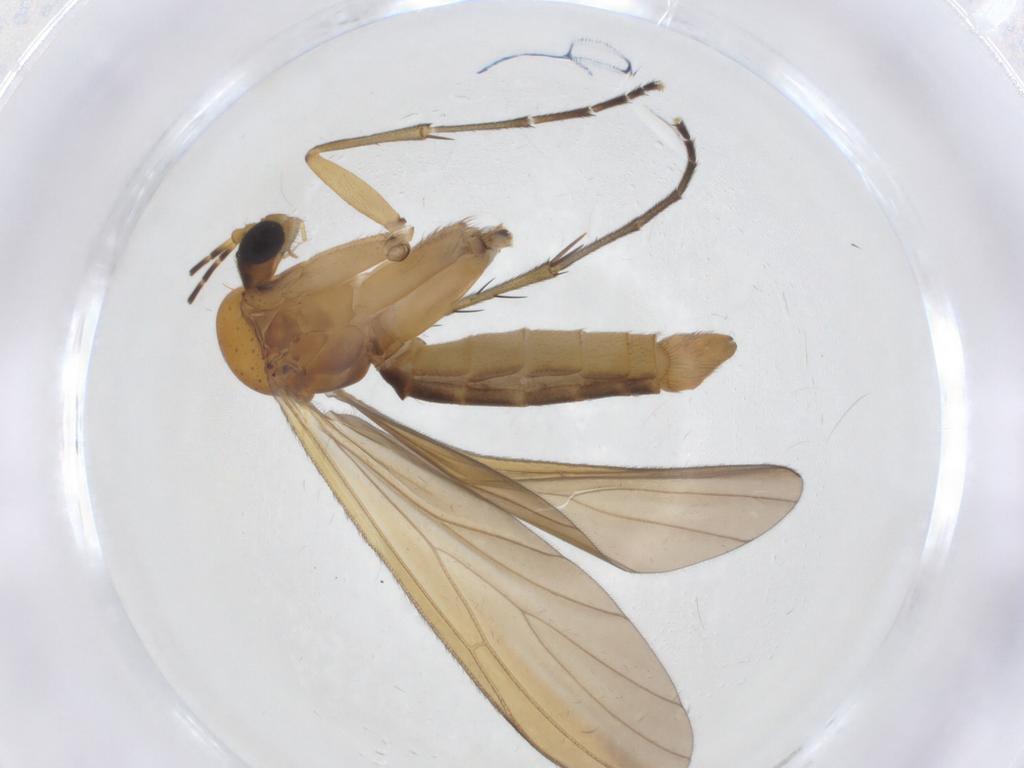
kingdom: Animalia
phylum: Arthropoda
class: Insecta
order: Diptera
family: Mycetophilidae
